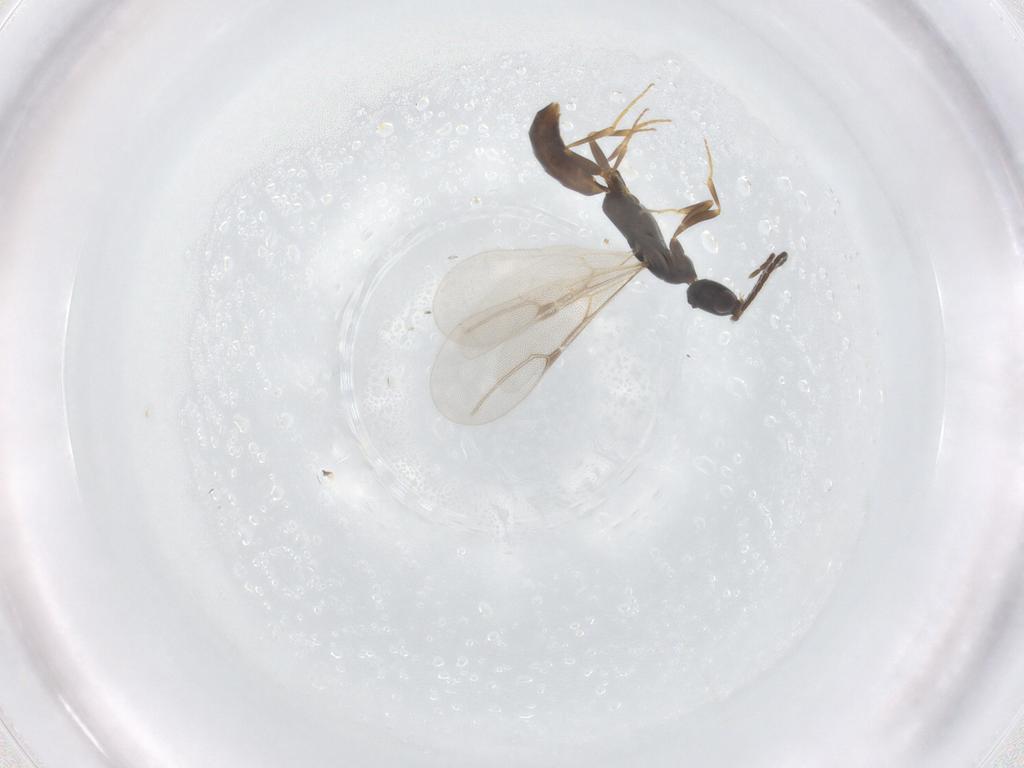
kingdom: Animalia
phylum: Arthropoda
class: Insecta
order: Hymenoptera
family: Bethylidae
